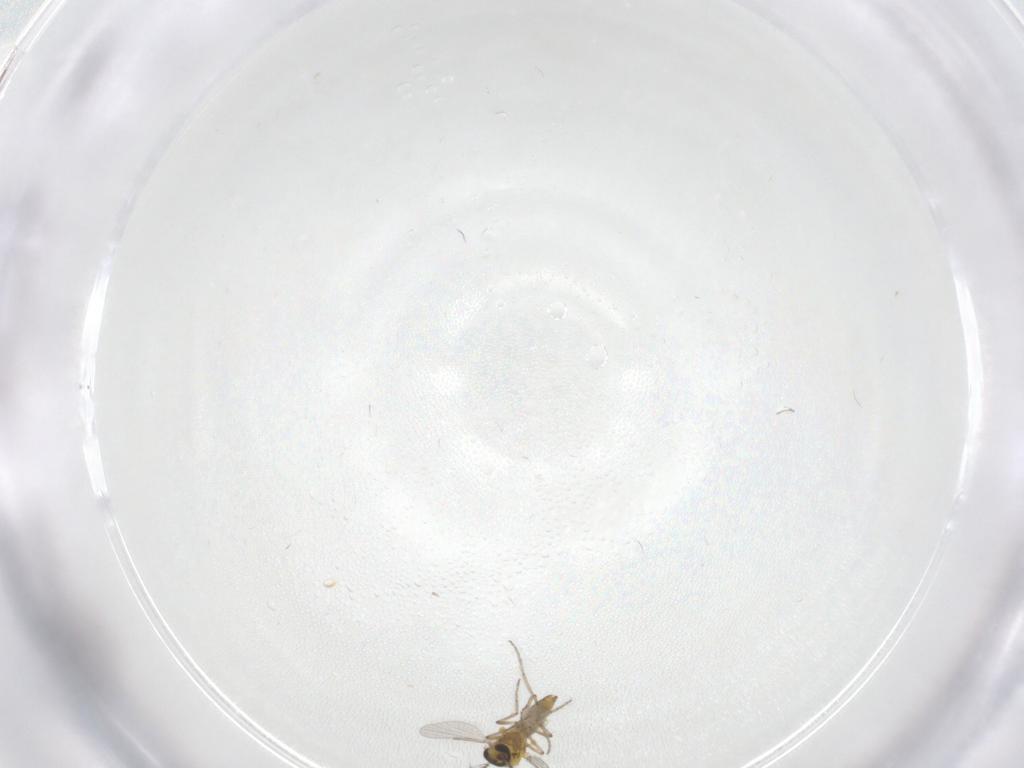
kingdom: Animalia
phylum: Arthropoda
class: Insecta
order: Diptera
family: Ceratopogonidae
